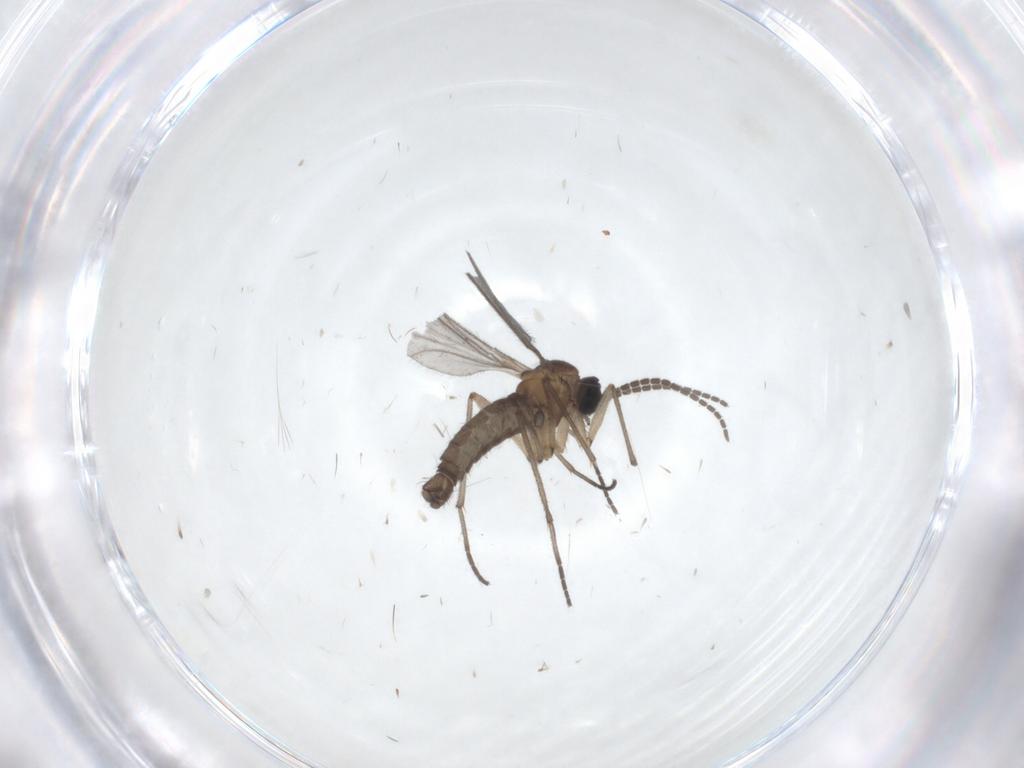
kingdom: Animalia
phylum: Arthropoda
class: Insecta
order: Diptera
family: Sciaridae
